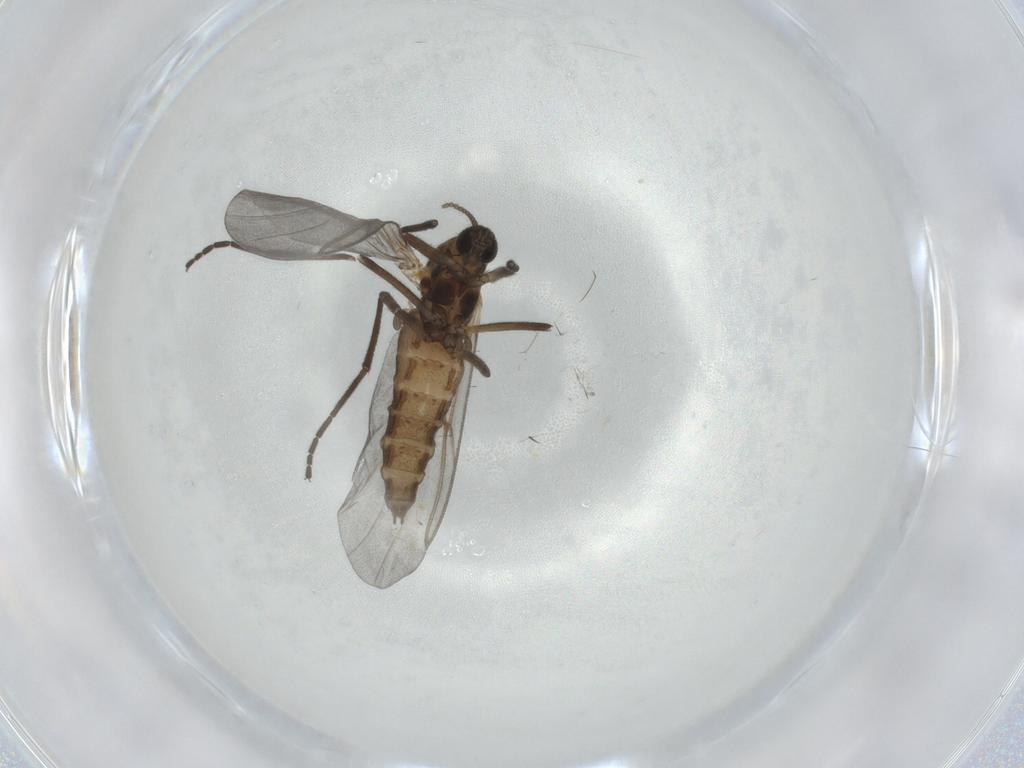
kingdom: Animalia
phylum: Arthropoda
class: Insecta
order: Diptera
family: Cecidomyiidae
